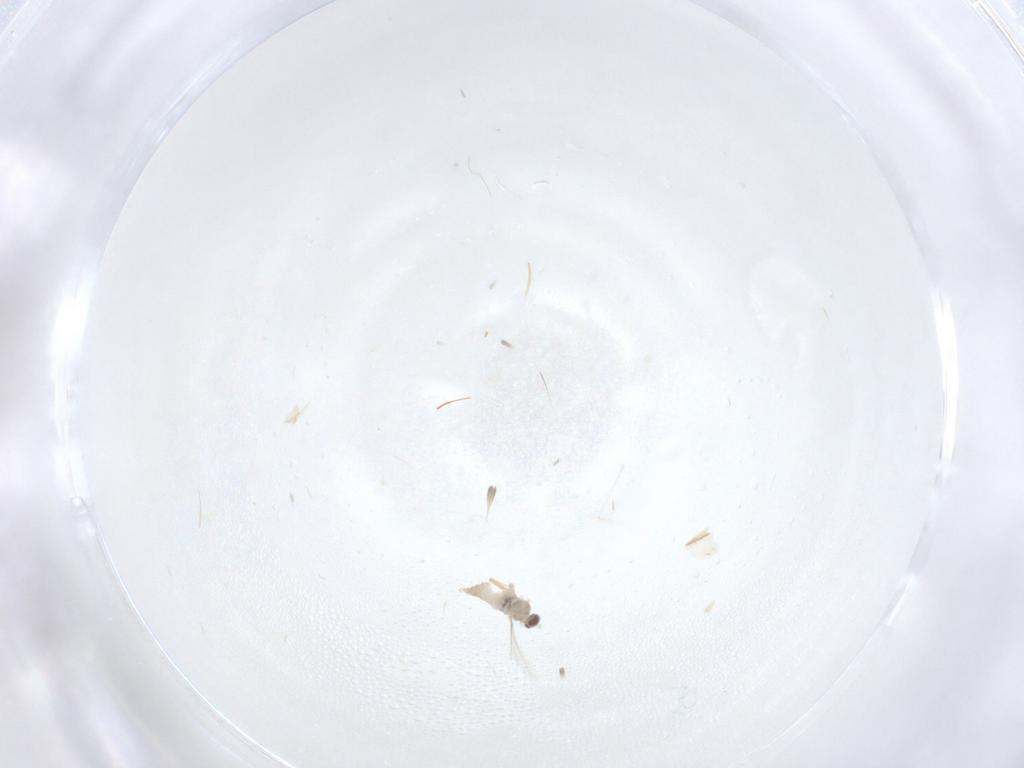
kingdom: Animalia
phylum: Arthropoda
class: Insecta
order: Diptera
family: Cecidomyiidae
